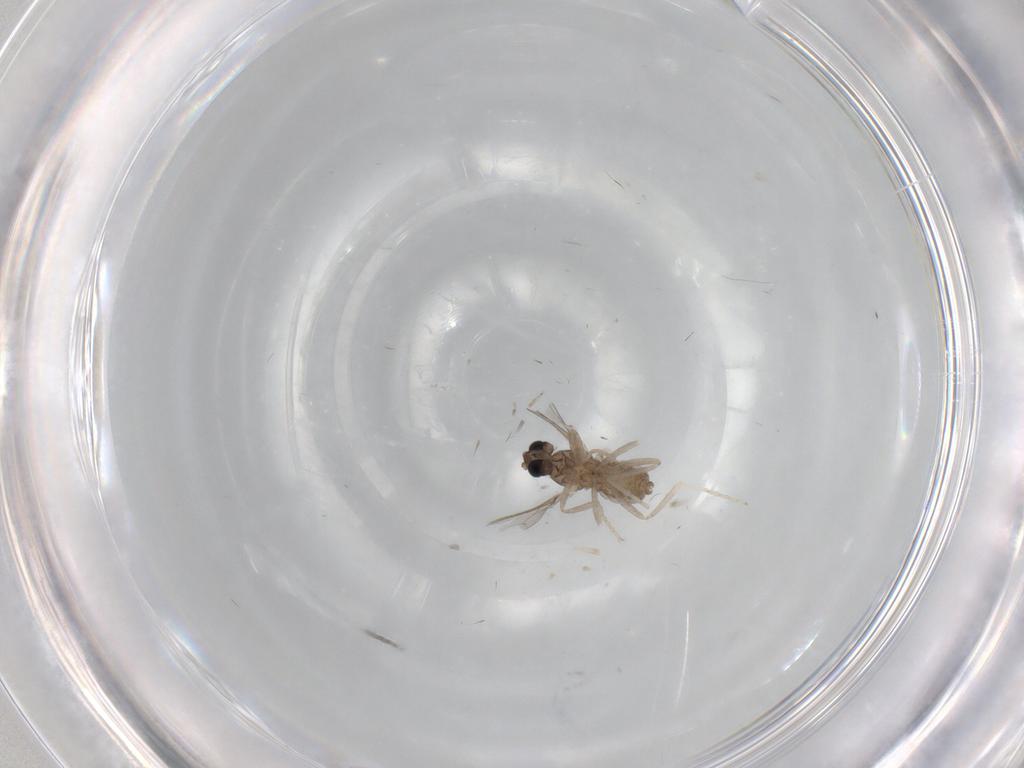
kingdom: Animalia
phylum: Arthropoda
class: Insecta
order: Diptera
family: Cecidomyiidae
